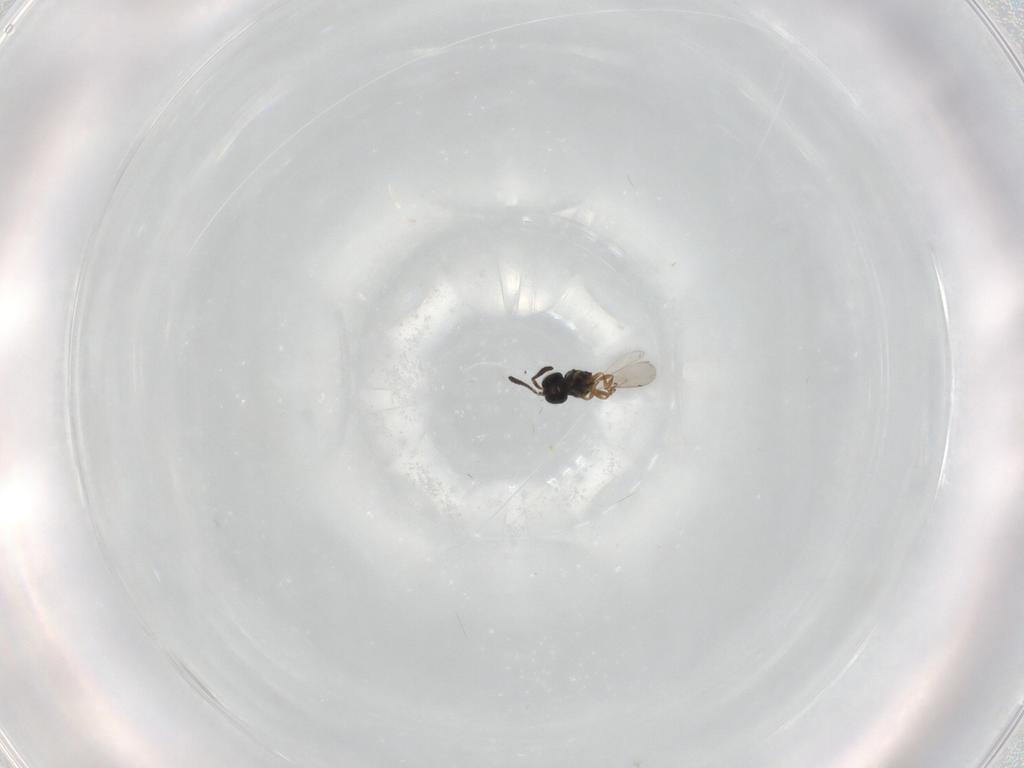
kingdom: Animalia
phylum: Arthropoda
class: Insecta
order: Hymenoptera
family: Scelionidae
